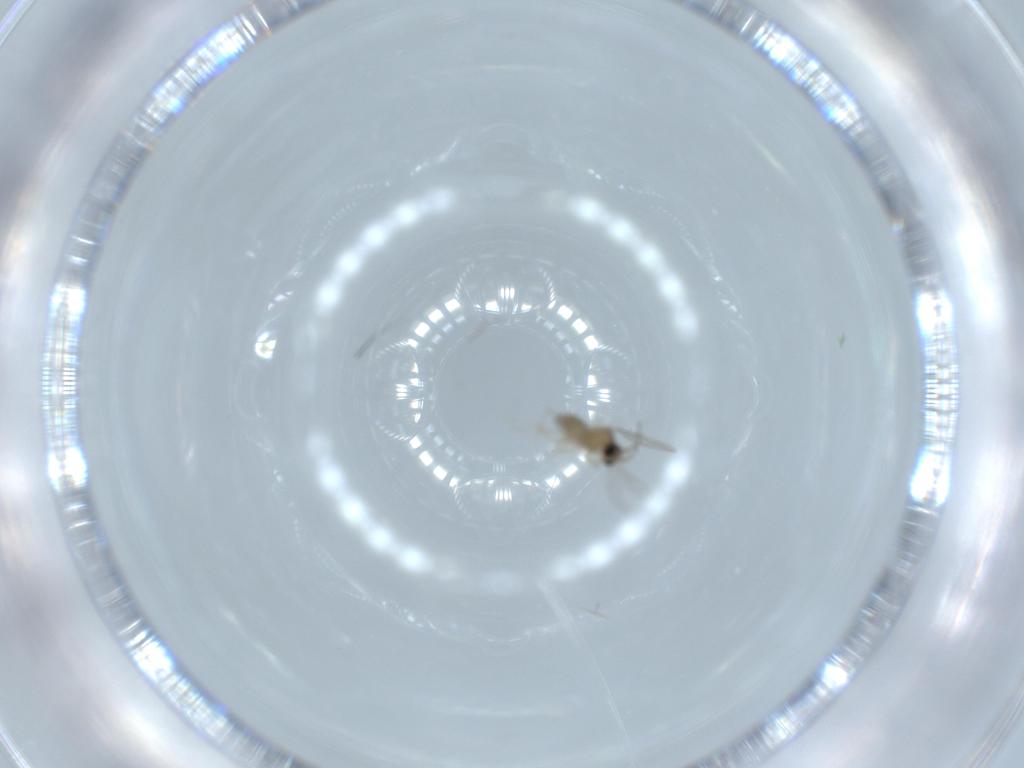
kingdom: Animalia
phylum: Arthropoda
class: Insecta
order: Diptera
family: Cecidomyiidae
